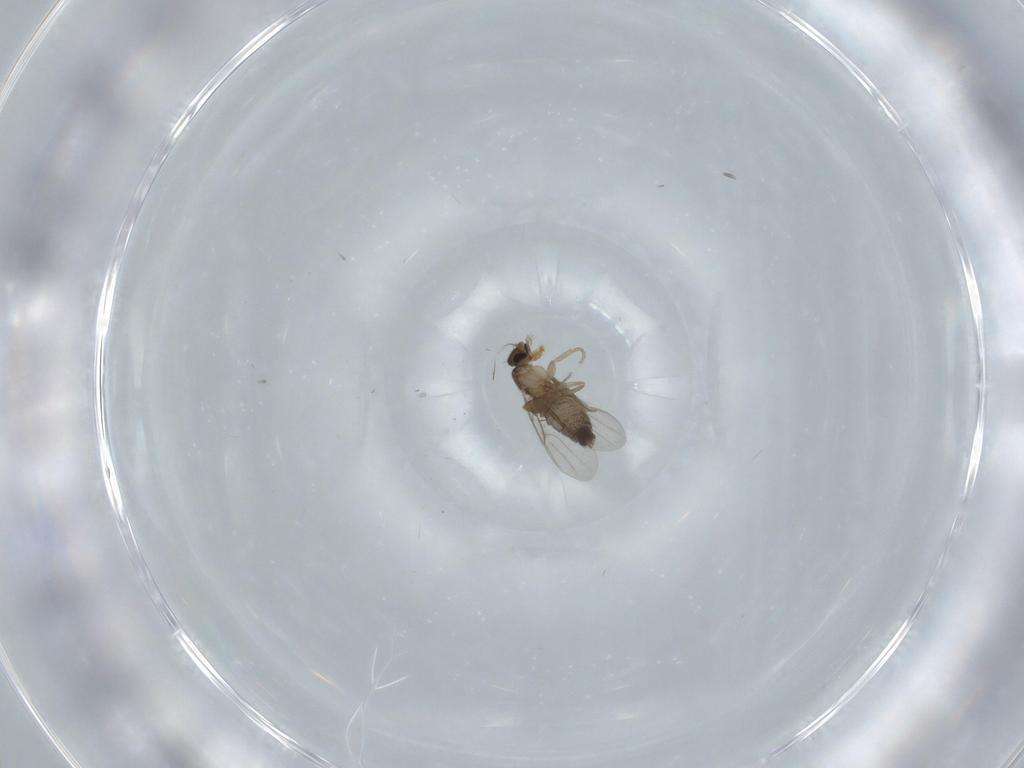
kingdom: Animalia
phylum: Arthropoda
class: Insecta
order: Diptera
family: Phoridae
